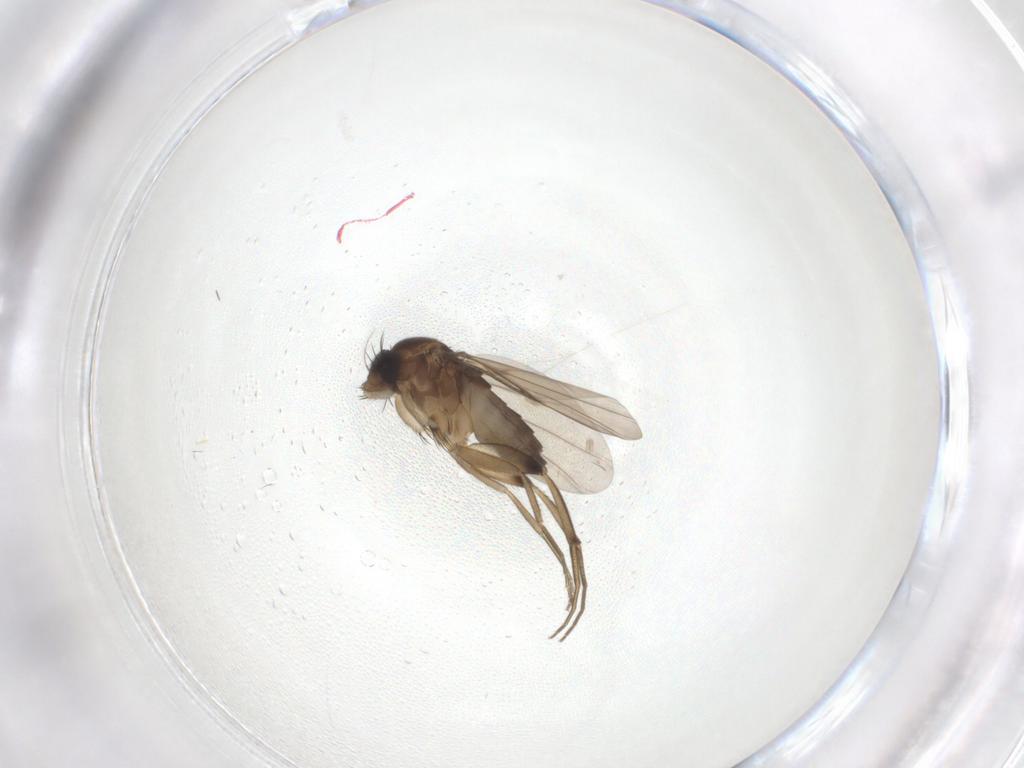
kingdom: Animalia
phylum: Arthropoda
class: Insecta
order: Diptera
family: Phoridae
